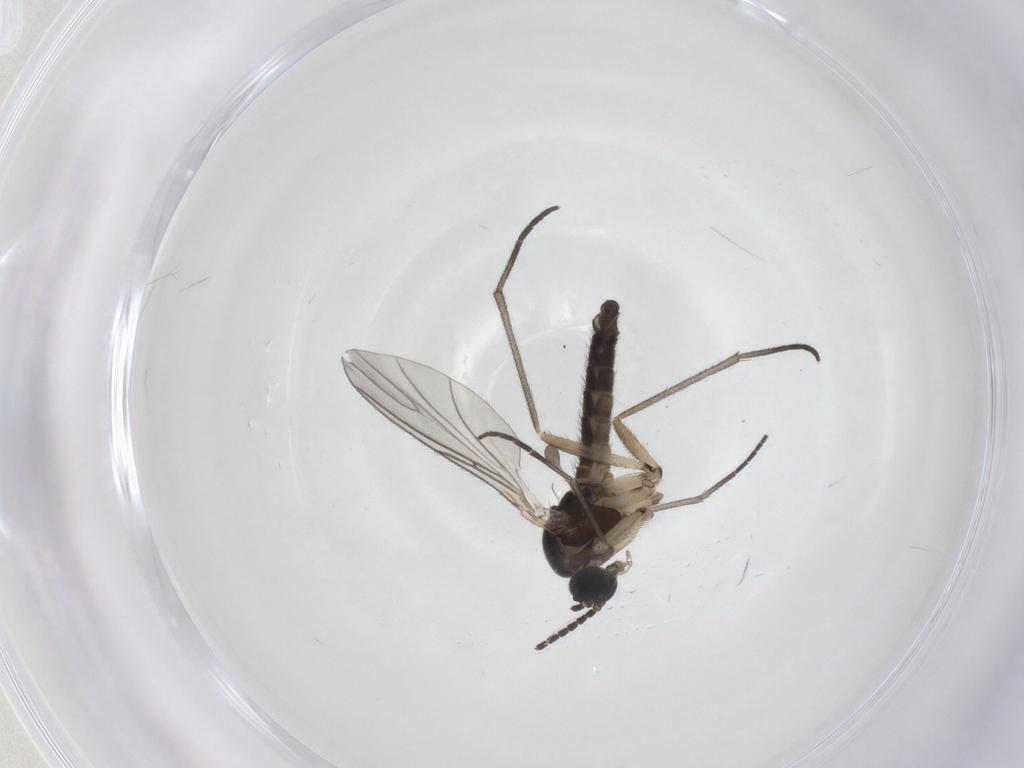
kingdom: Animalia
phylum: Arthropoda
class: Insecta
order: Diptera
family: Sciaridae
